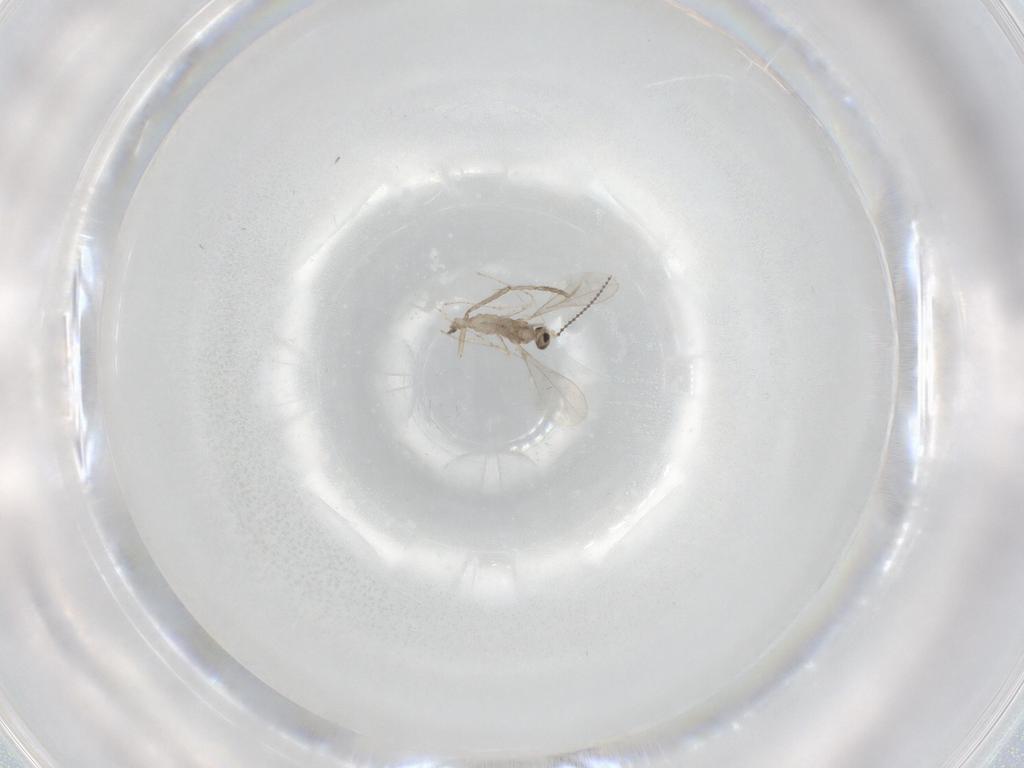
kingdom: Animalia
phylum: Arthropoda
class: Insecta
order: Diptera
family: Cecidomyiidae
